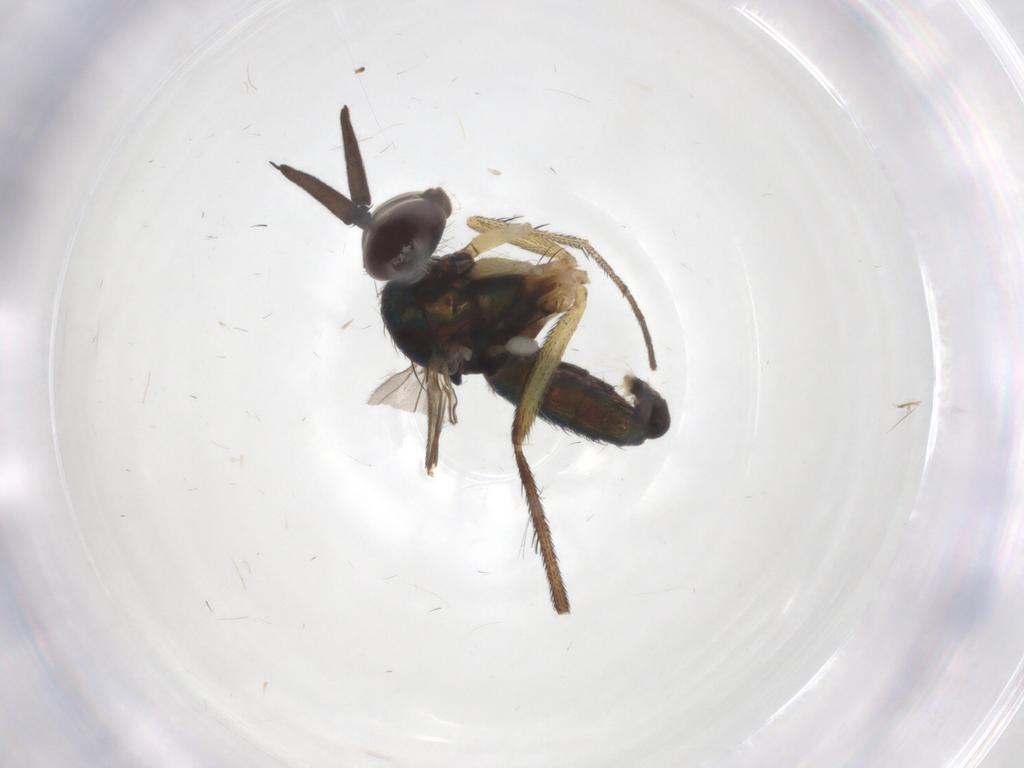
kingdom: Animalia
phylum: Arthropoda
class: Insecta
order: Diptera
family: Dolichopodidae
